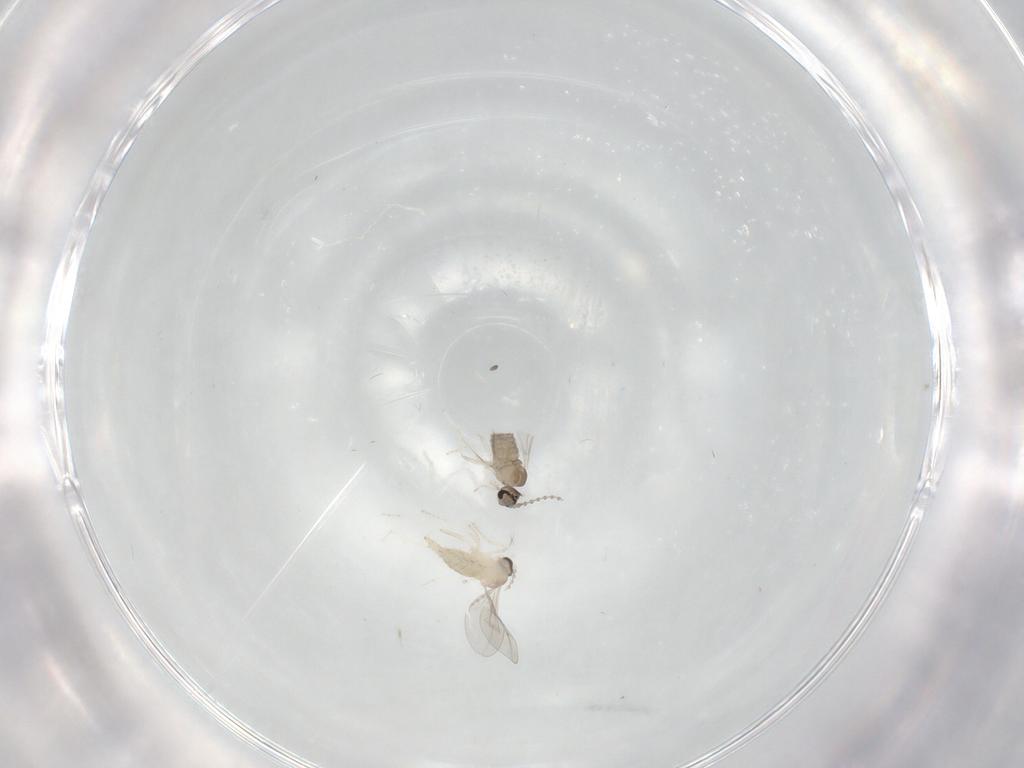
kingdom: Animalia
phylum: Arthropoda
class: Insecta
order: Diptera
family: Cecidomyiidae
